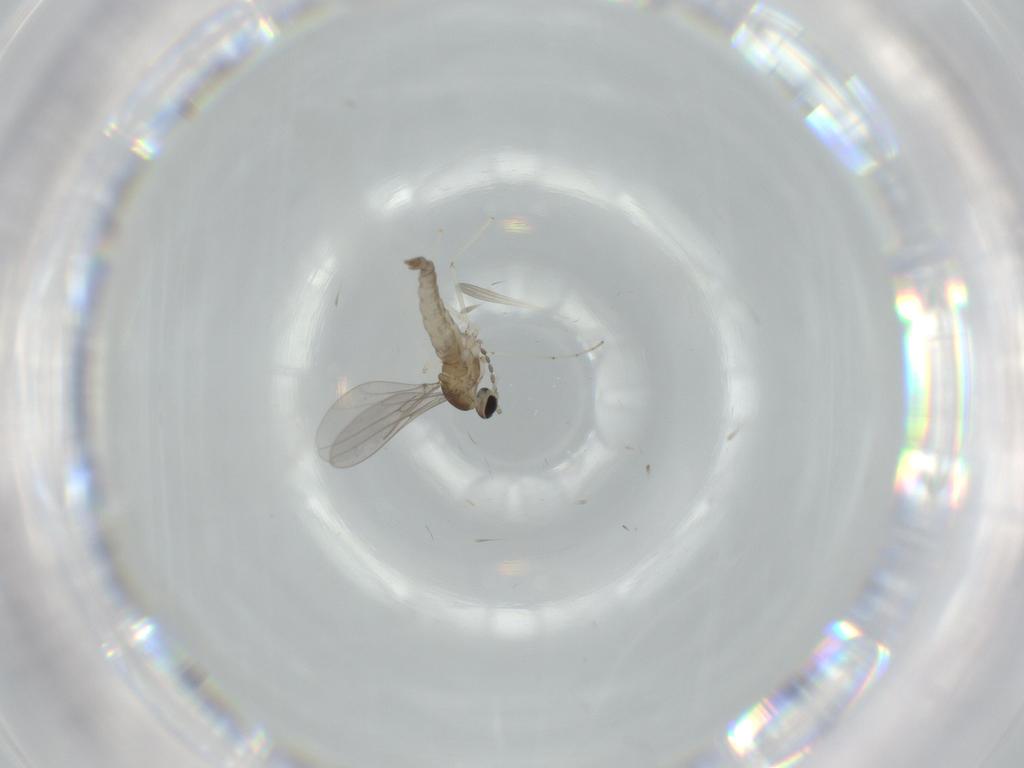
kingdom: Animalia
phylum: Arthropoda
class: Insecta
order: Diptera
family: Cecidomyiidae
